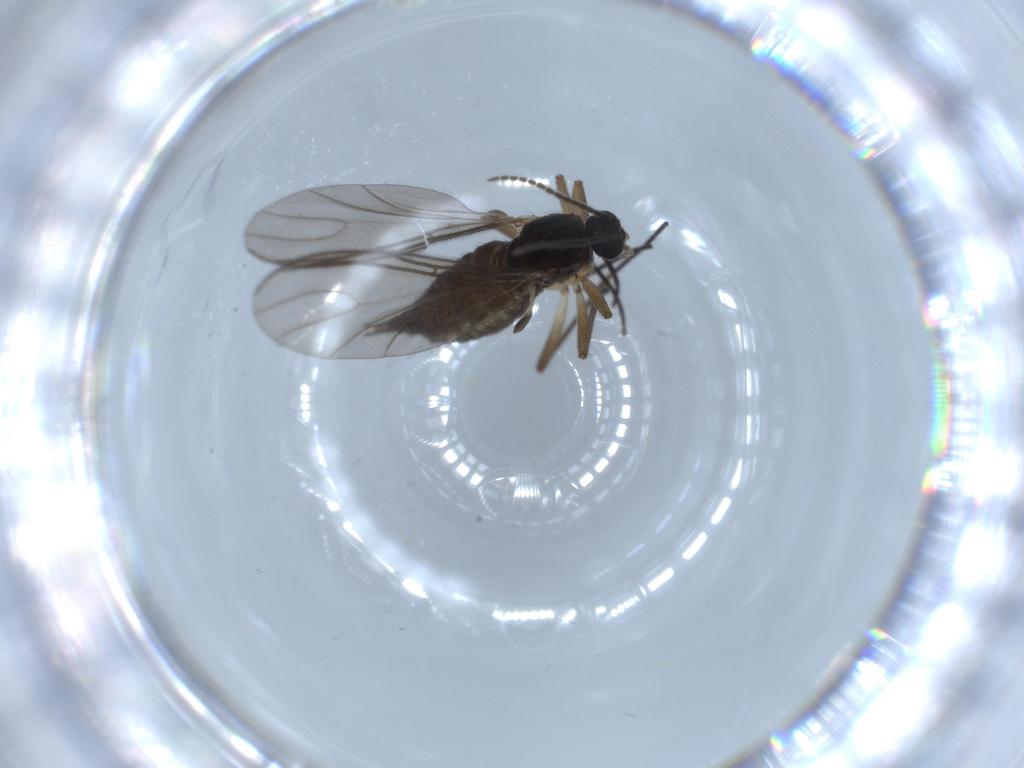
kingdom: Animalia
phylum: Arthropoda
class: Insecta
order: Diptera
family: Sciaridae
